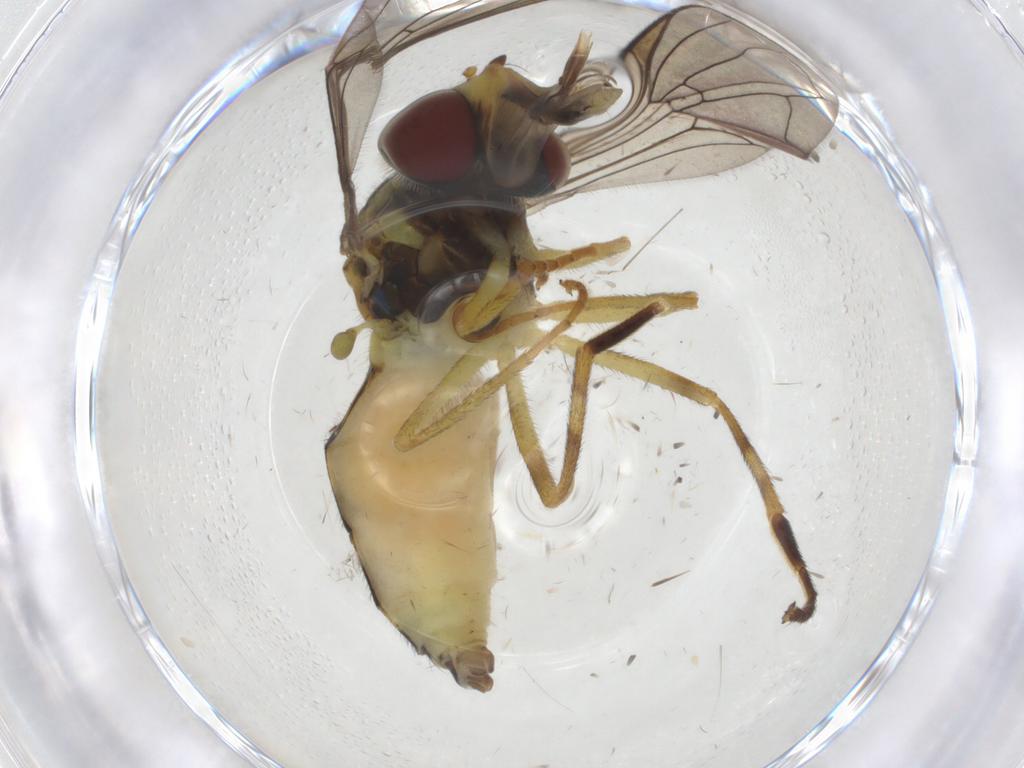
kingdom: Animalia
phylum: Arthropoda
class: Insecta
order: Diptera
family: Syrphidae
